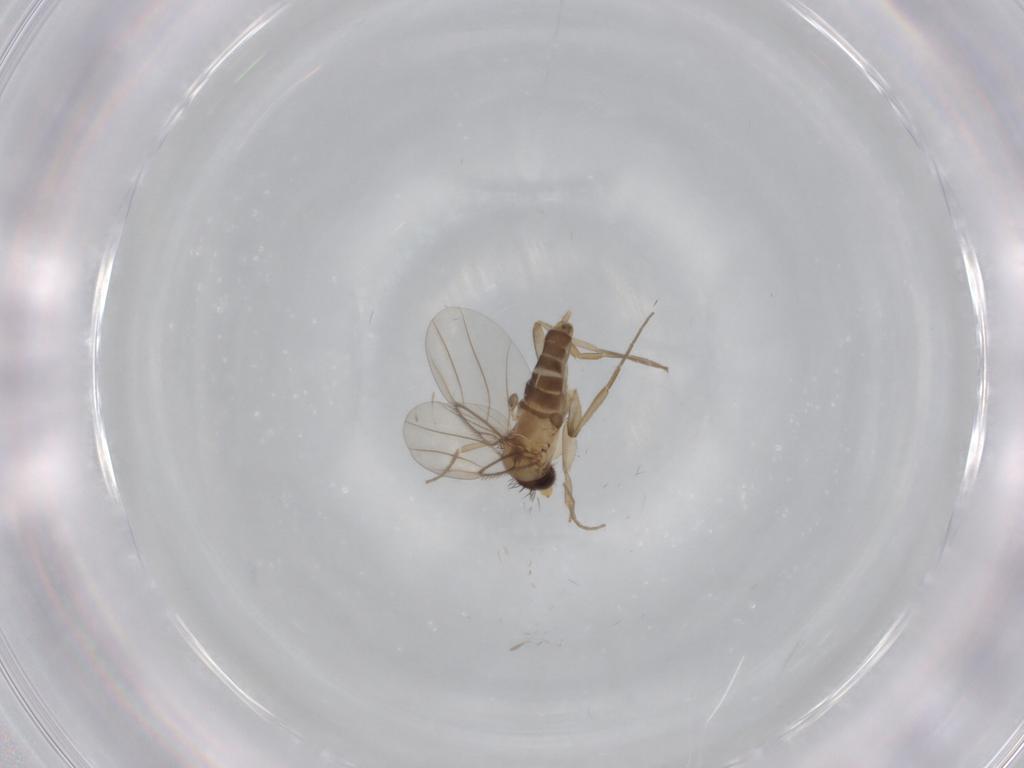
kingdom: Animalia
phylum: Arthropoda
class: Insecta
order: Diptera
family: Phoridae
